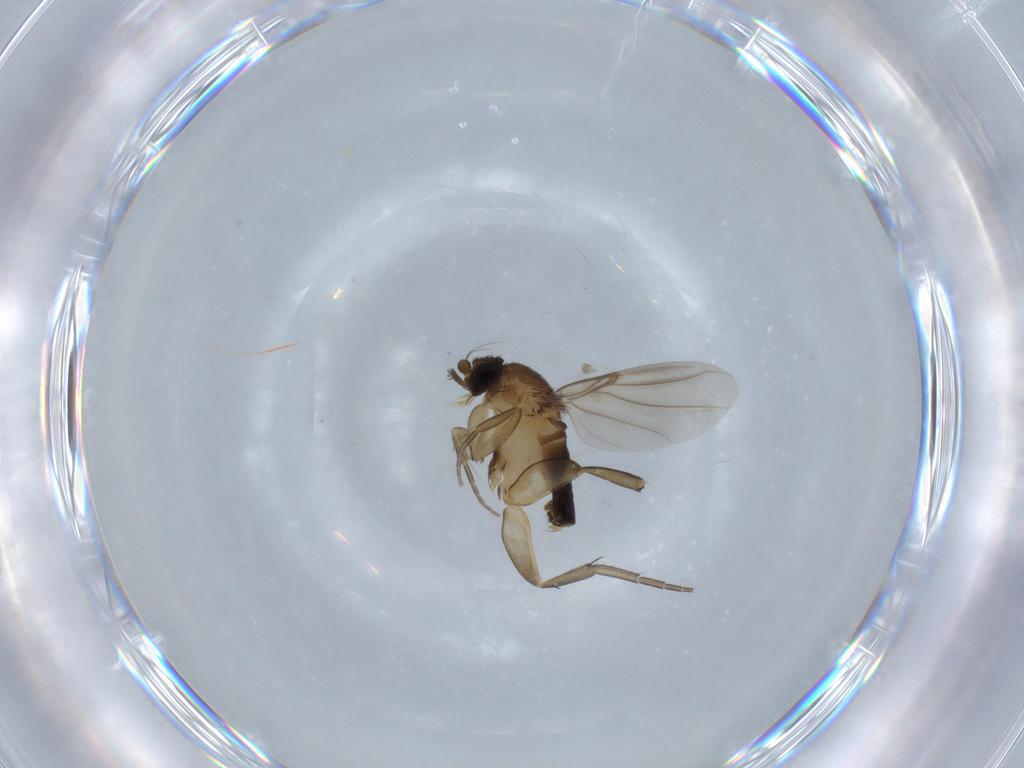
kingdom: Animalia
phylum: Arthropoda
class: Insecta
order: Diptera
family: Phoridae
